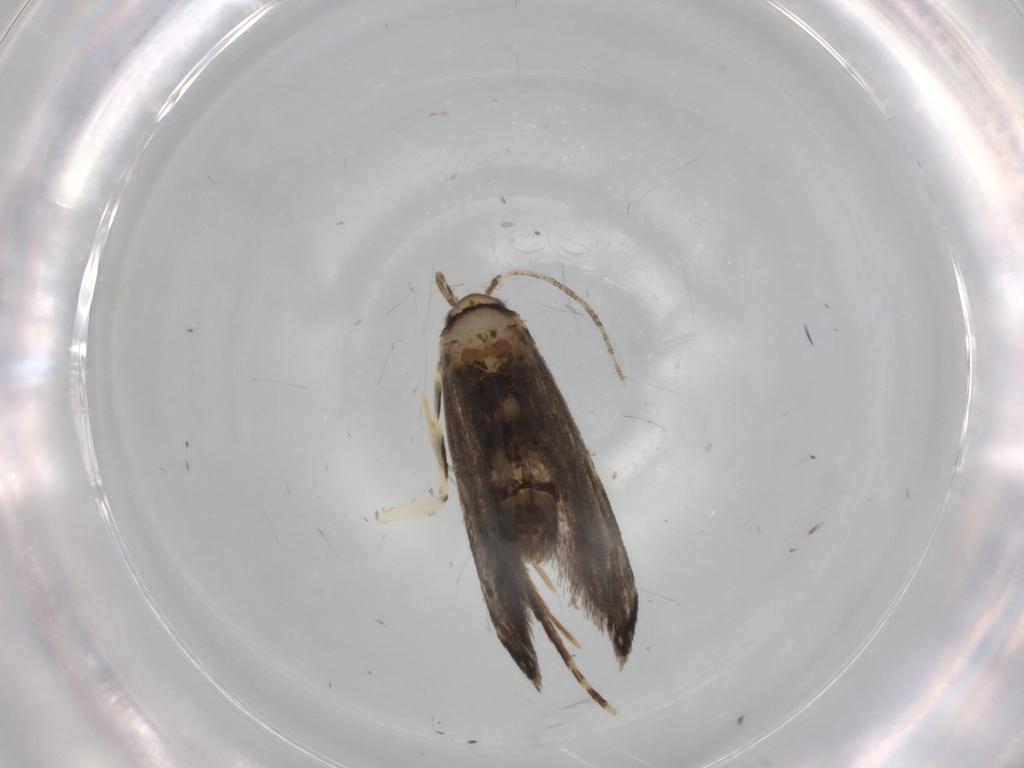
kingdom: Animalia
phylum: Arthropoda
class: Insecta
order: Lepidoptera
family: Tineidae
